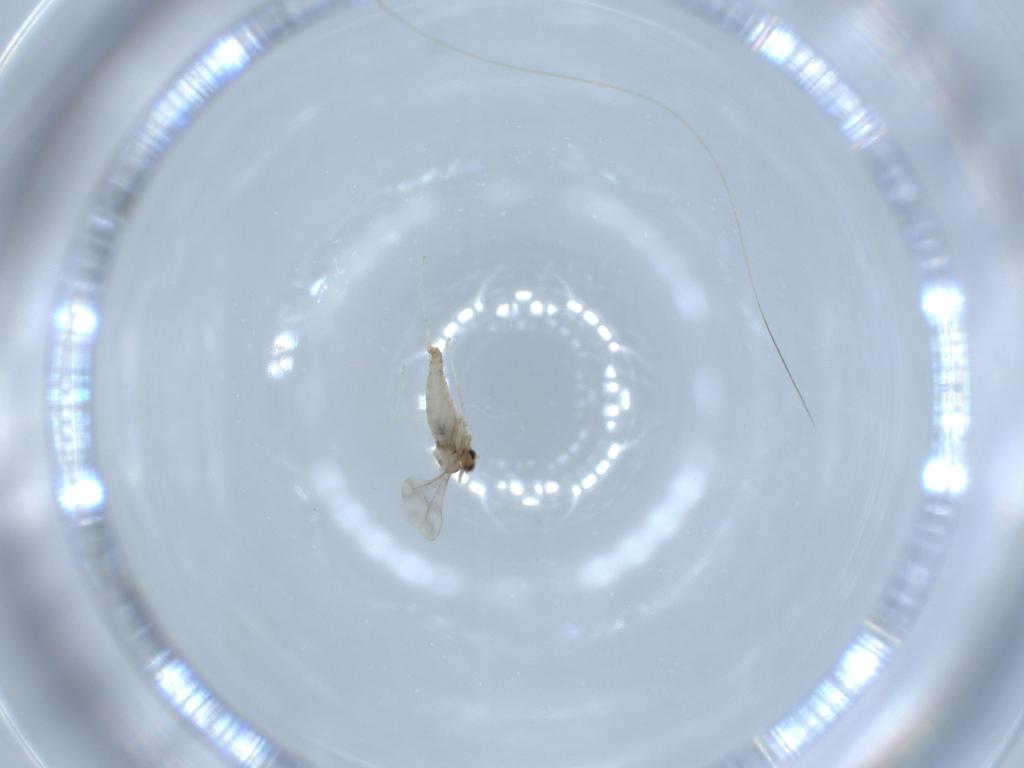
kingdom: Animalia
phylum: Arthropoda
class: Insecta
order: Diptera
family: Cecidomyiidae
